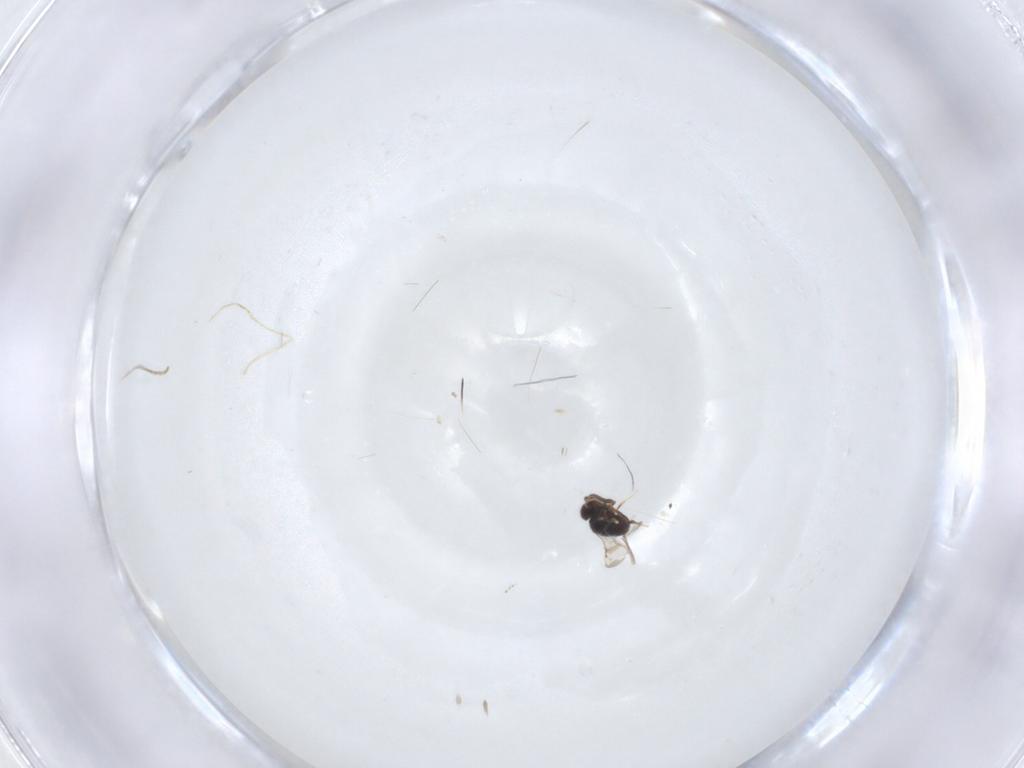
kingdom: Animalia
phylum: Arthropoda
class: Insecta
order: Diptera
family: Cecidomyiidae
